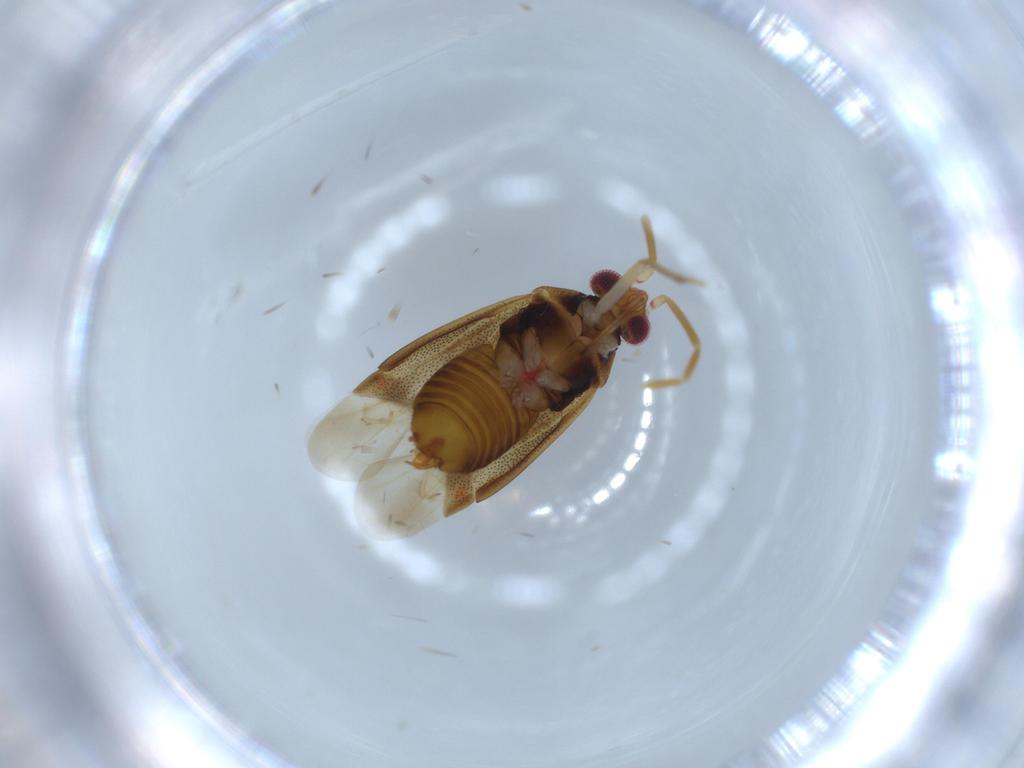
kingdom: Animalia
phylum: Arthropoda
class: Insecta
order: Hemiptera
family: Miridae
